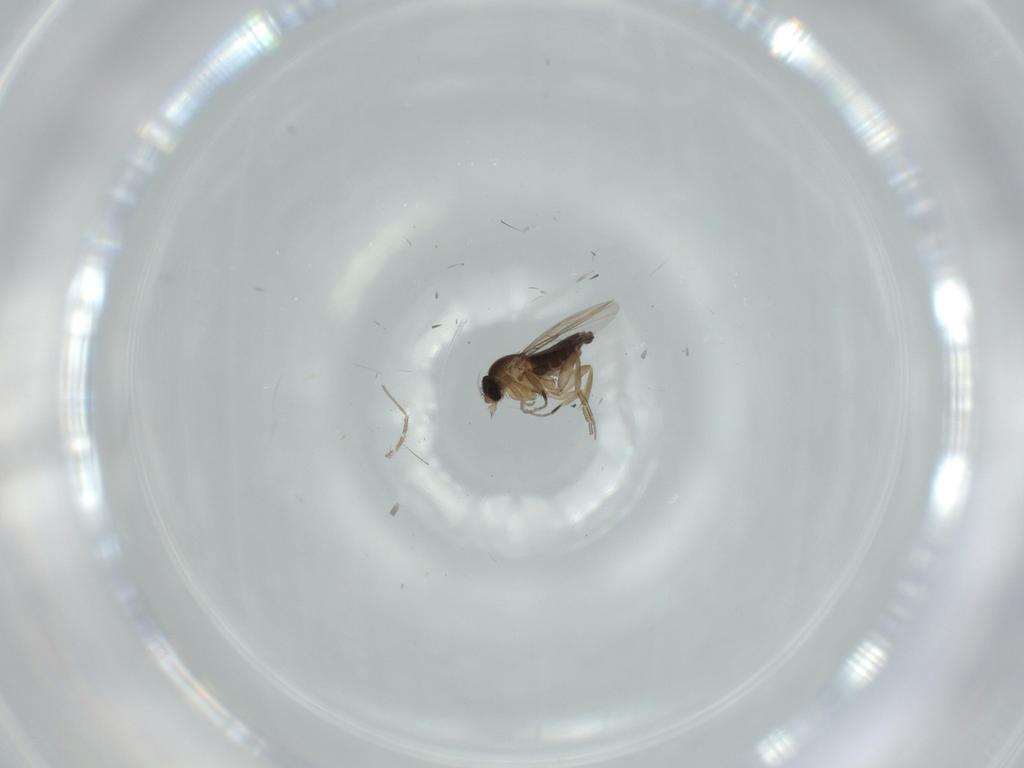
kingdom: Animalia
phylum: Arthropoda
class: Insecta
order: Diptera
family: Phoridae
